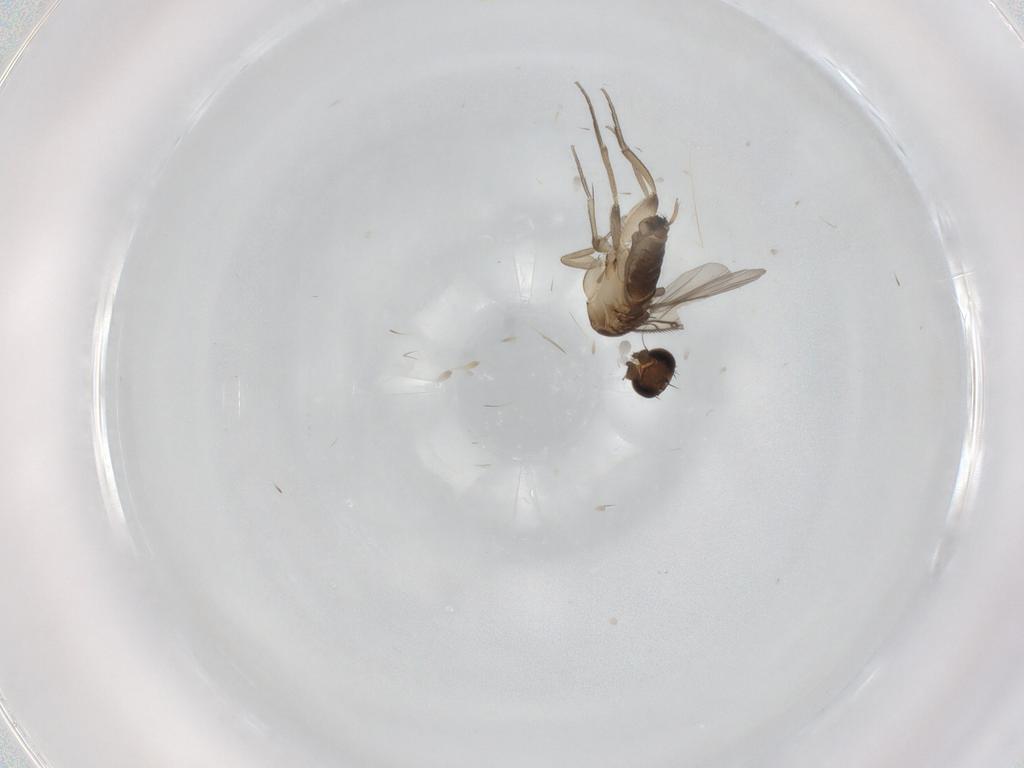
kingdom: Animalia
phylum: Arthropoda
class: Insecta
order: Diptera
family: Phoridae
